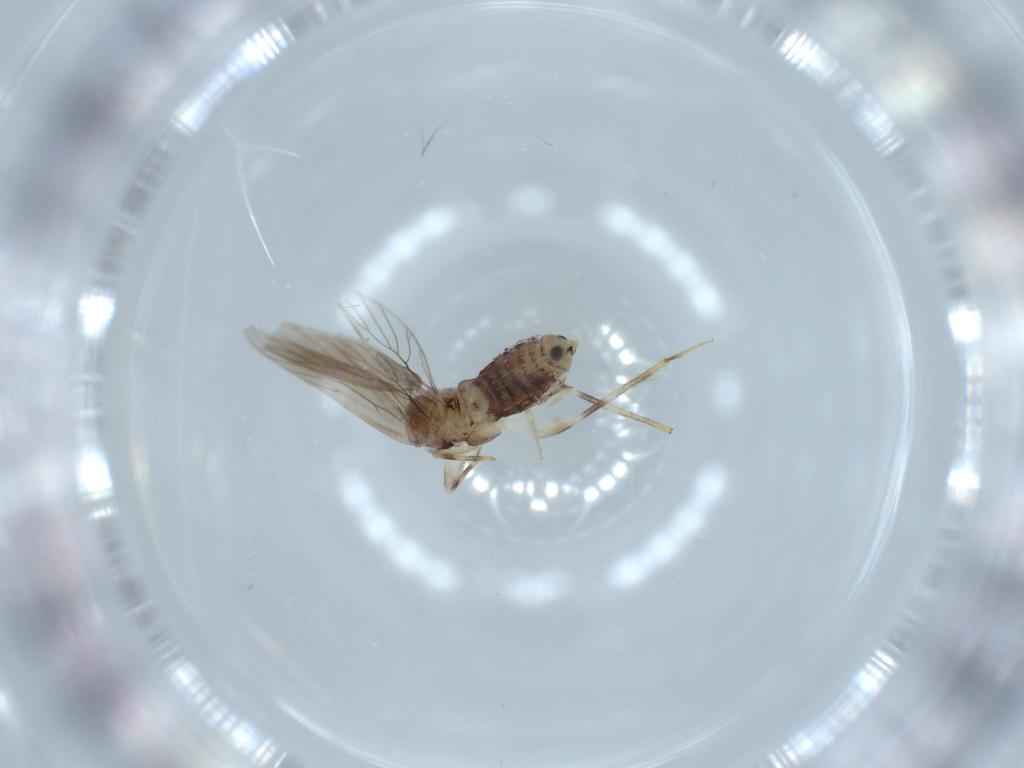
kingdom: Animalia
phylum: Arthropoda
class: Insecta
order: Psocodea
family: Lepidopsocidae
